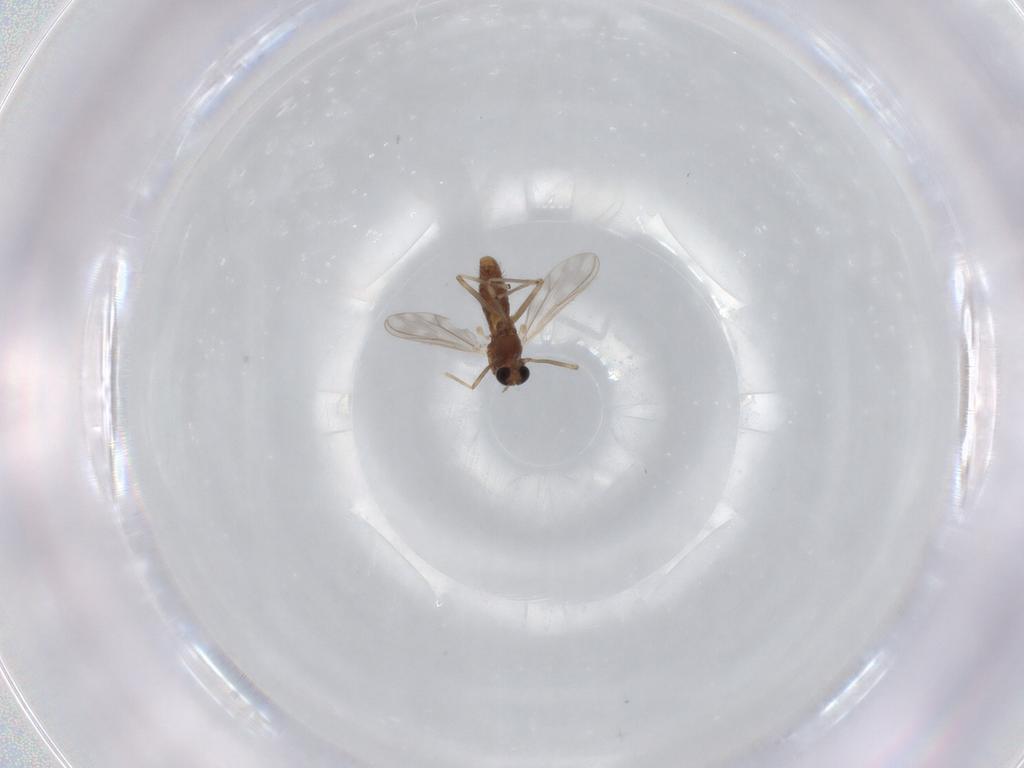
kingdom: Animalia
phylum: Arthropoda
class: Insecta
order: Diptera
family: Chironomidae
